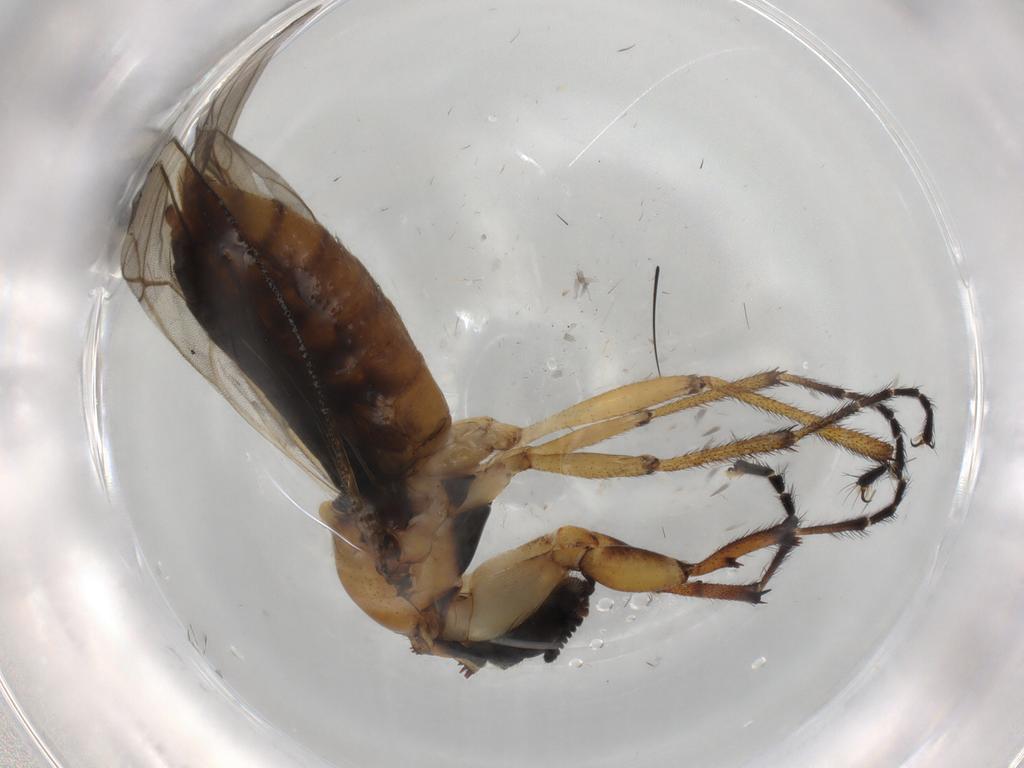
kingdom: Animalia
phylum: Arthropoda
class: Insecta
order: Diptera
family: Bibionidae
